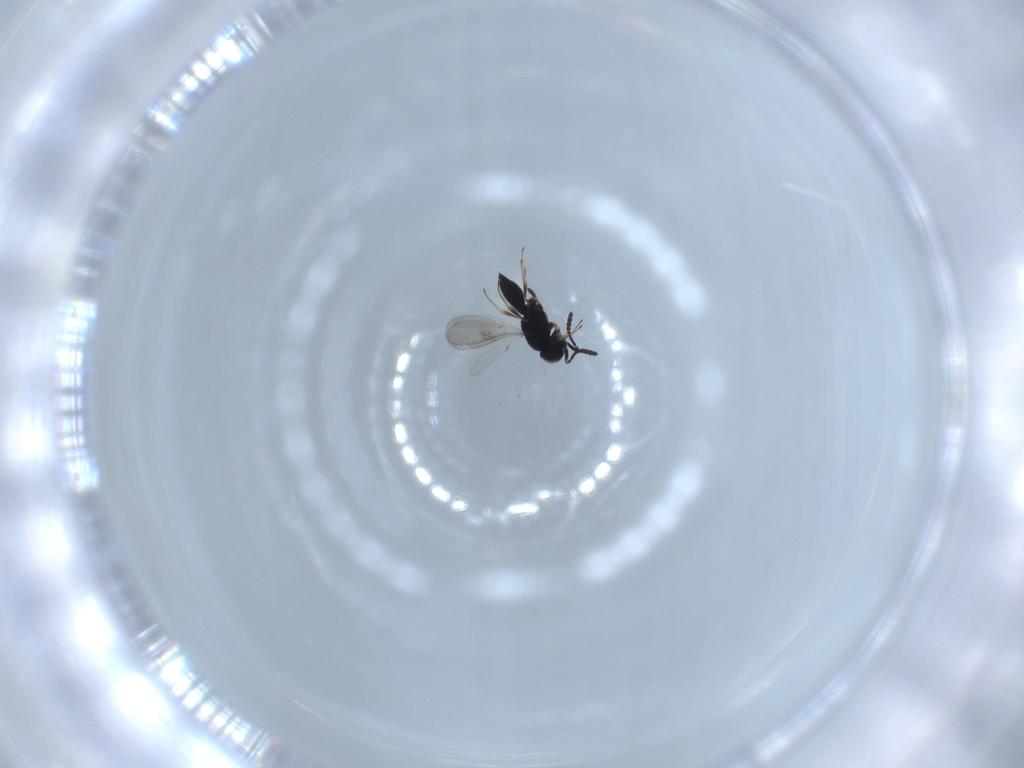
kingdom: Animalia
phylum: Arthropoda
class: Insecta
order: Hymenoptera
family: Scelionidae
